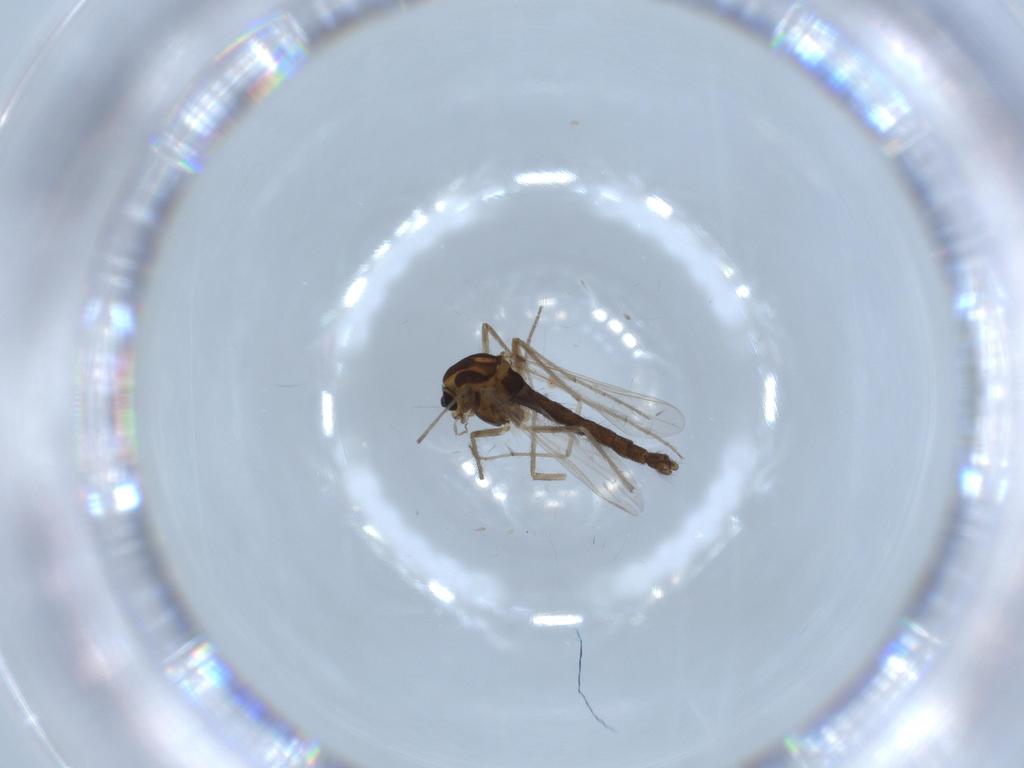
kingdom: Animalia
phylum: Arthropoda
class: Insecta
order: Diptera
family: Chironomidae
